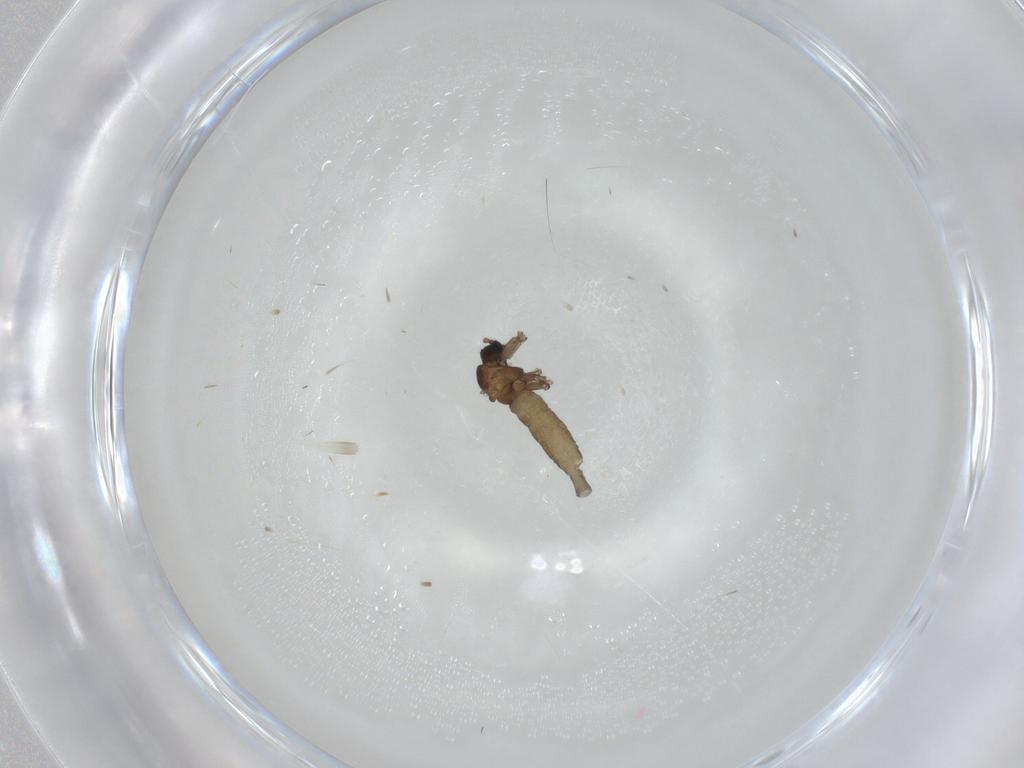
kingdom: Animalia
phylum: Arthropoda
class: Insecta
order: Diptera
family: Sciaridae
